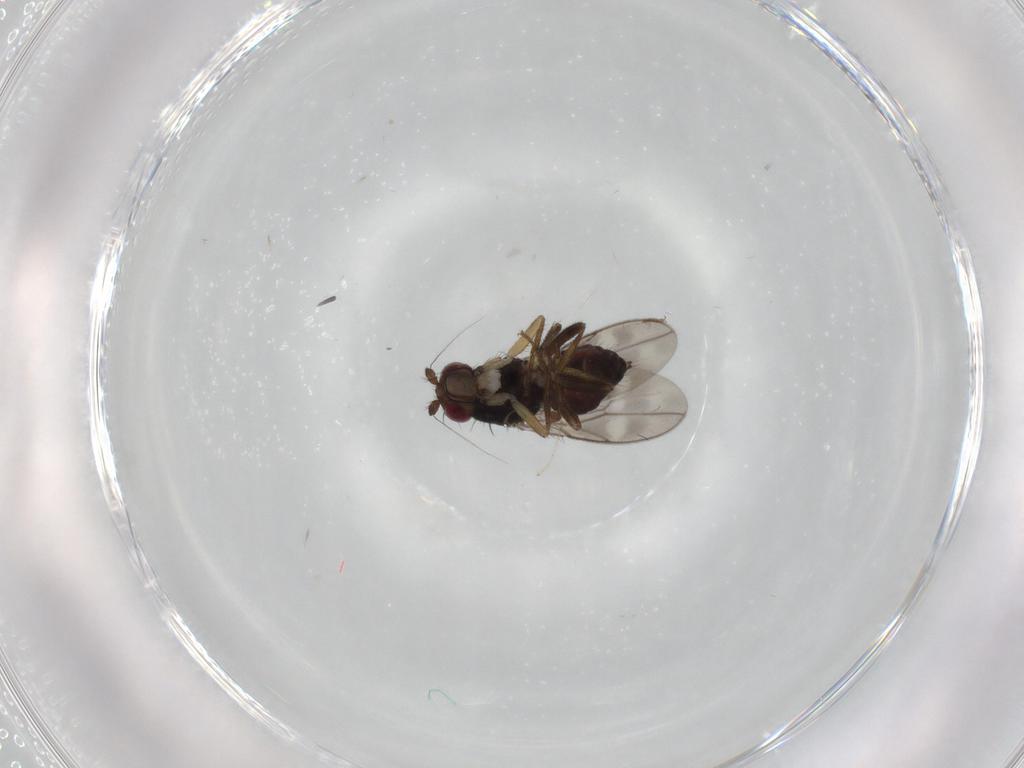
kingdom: Animalia
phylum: Arthropoda
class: Insecta
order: Diptera
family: Sphaeroceridae
